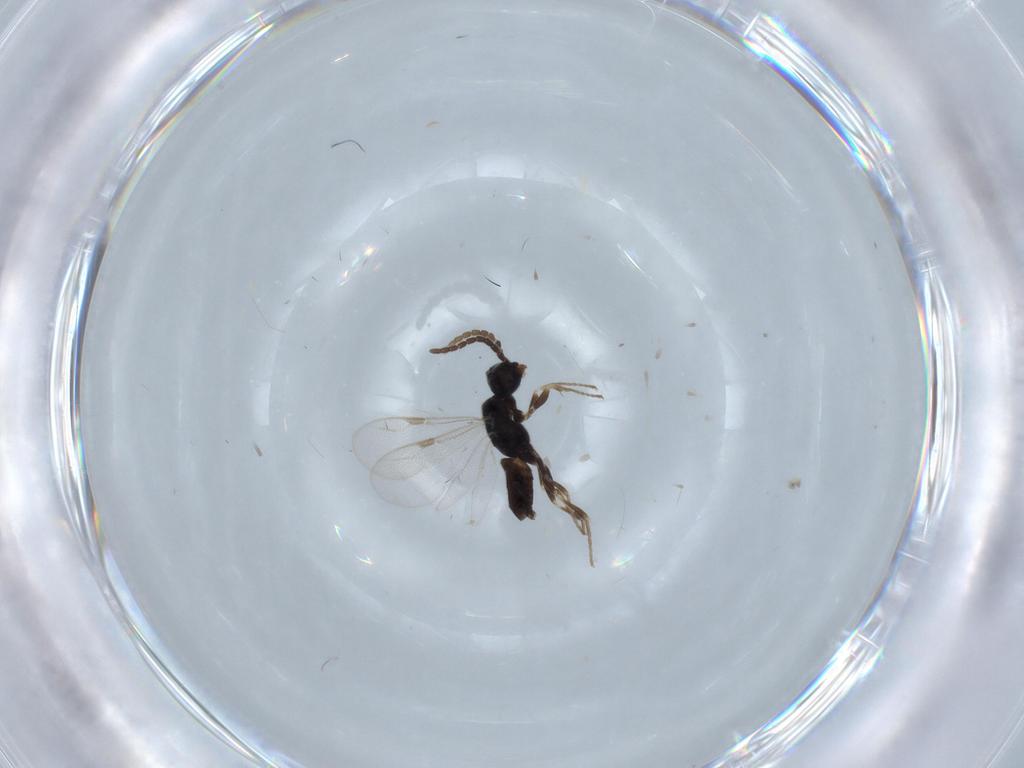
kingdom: Animalia
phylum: Arthropoda
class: Insecta
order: Hymenoptera
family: Dryinidae
